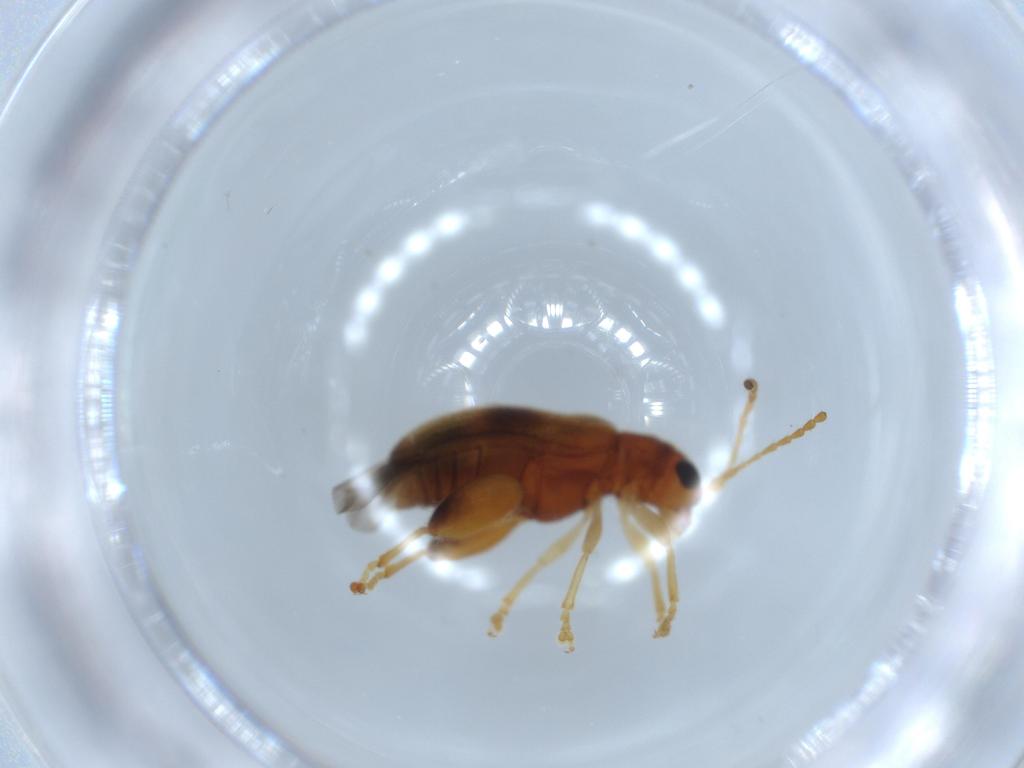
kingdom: Animalia
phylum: Arthropoda
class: Insecta
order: Coleoptera
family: Chrysomelidae
